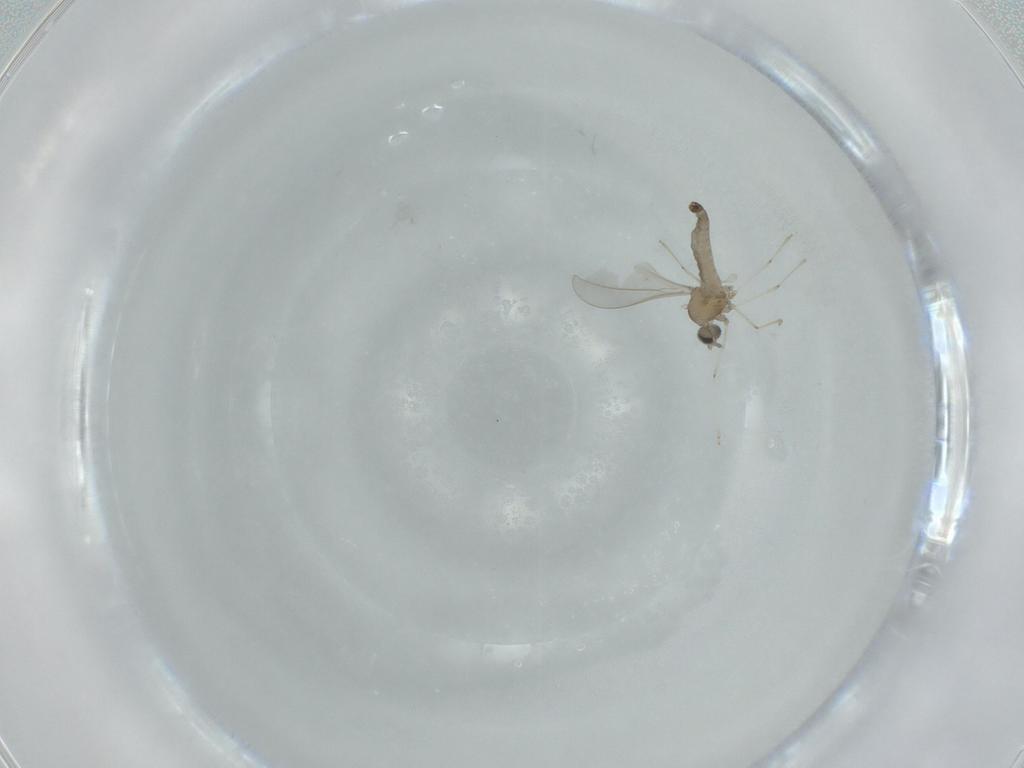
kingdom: Animalia
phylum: Arthropoda
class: Insecta
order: Diptera
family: Cecidomyiidae
